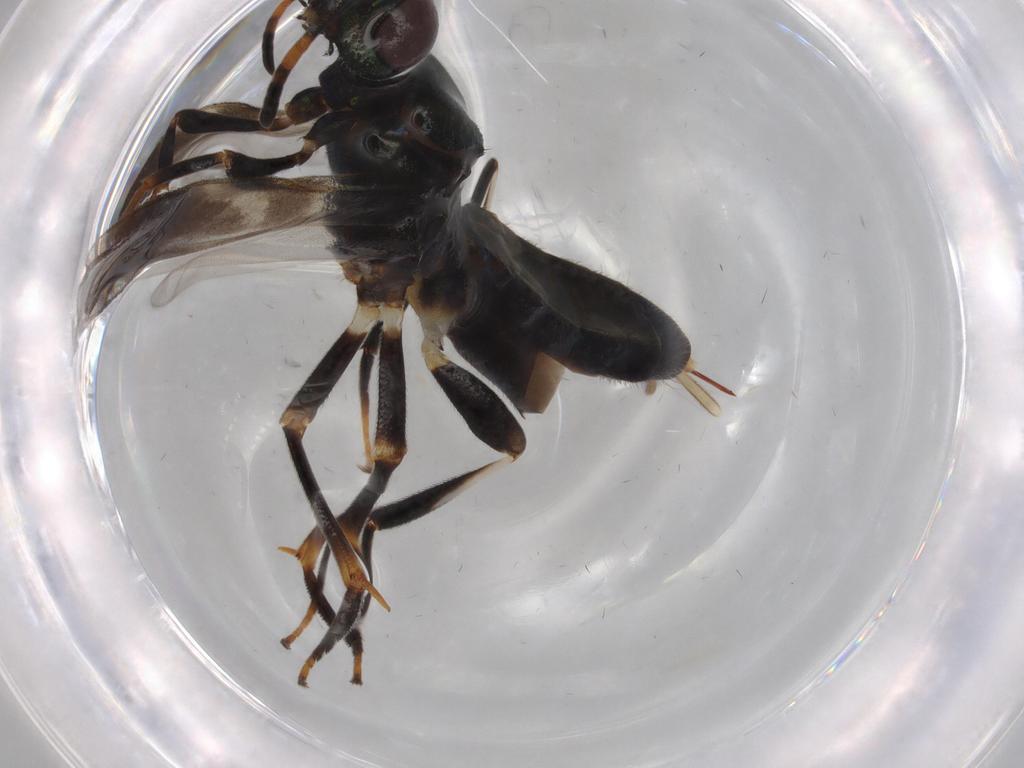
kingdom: Animalia
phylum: Arthropoda
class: Insecta
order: Hymenoptera
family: Eupelmidae
